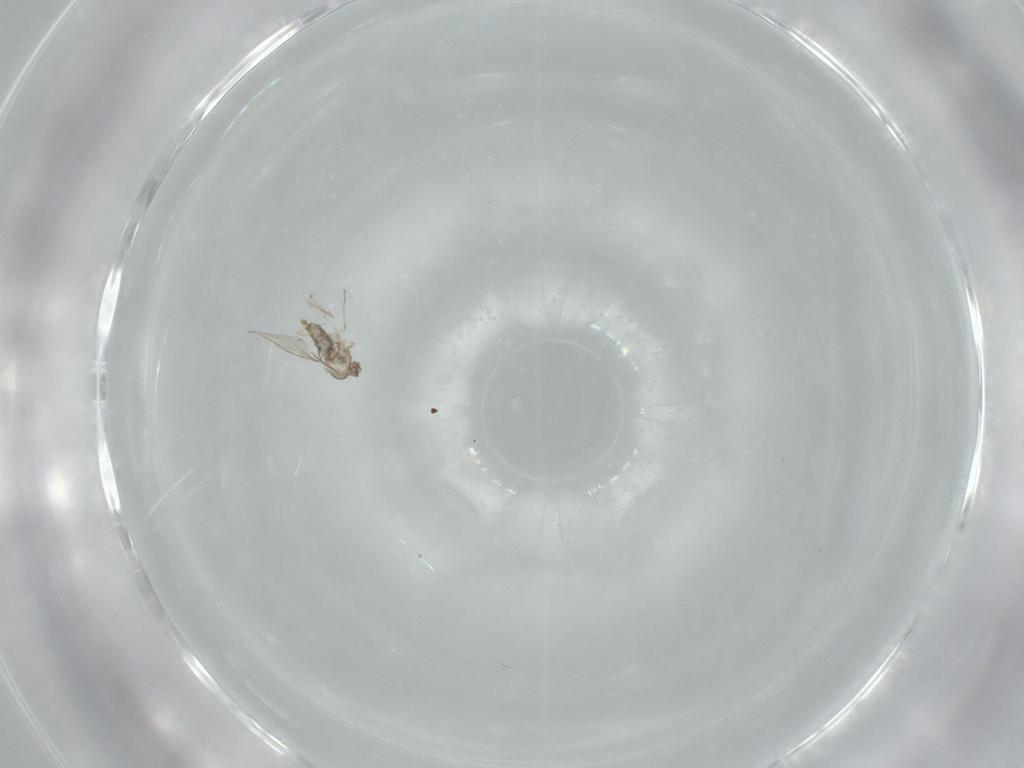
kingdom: Animalia
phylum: Arthropoda
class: Insecta
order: Diptera
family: Cecidomyiidae
